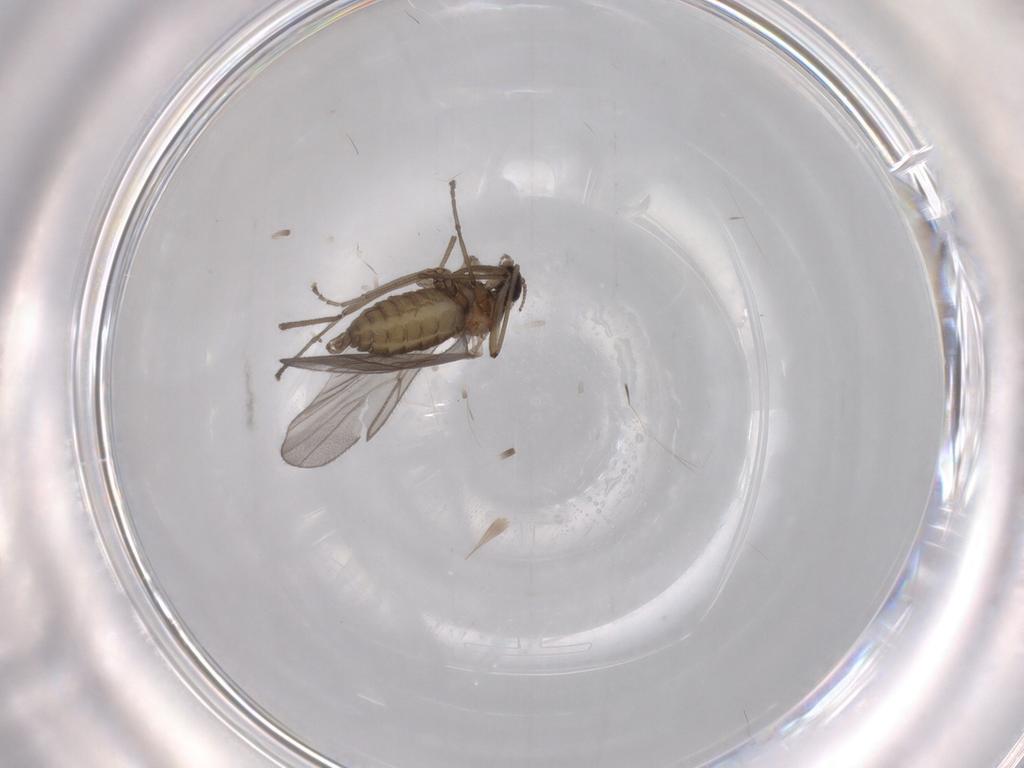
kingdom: Animalia
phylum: Arthropoda
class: Insecta
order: Diptera
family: Cecidomyiidae
